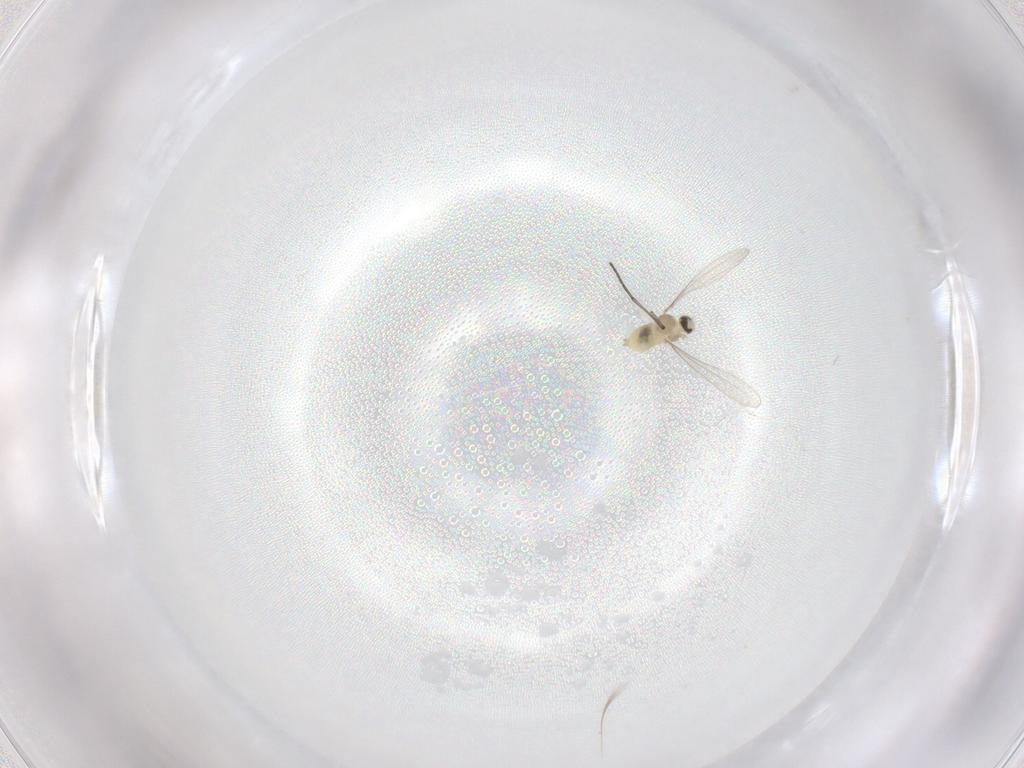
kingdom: Animalia
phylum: Arthropoda
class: Insecta
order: Diptera
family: Cecidomyiidae
